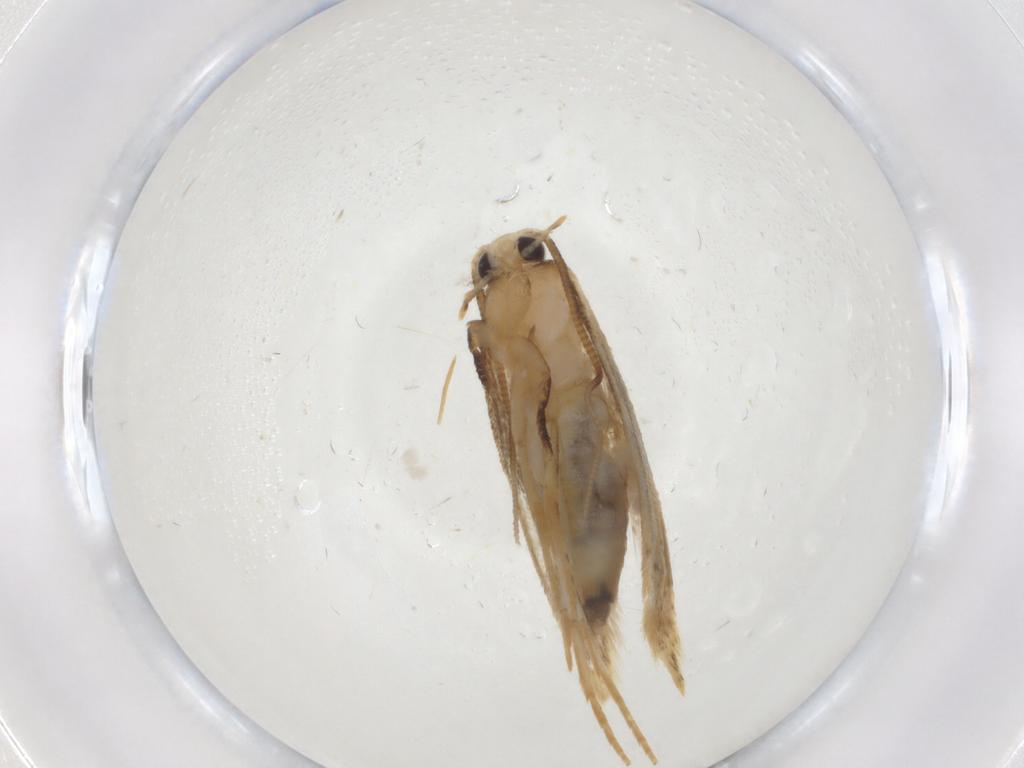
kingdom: Animalia
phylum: Arthropoda
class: Insecta
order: Lepidoptera
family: Tineidae
